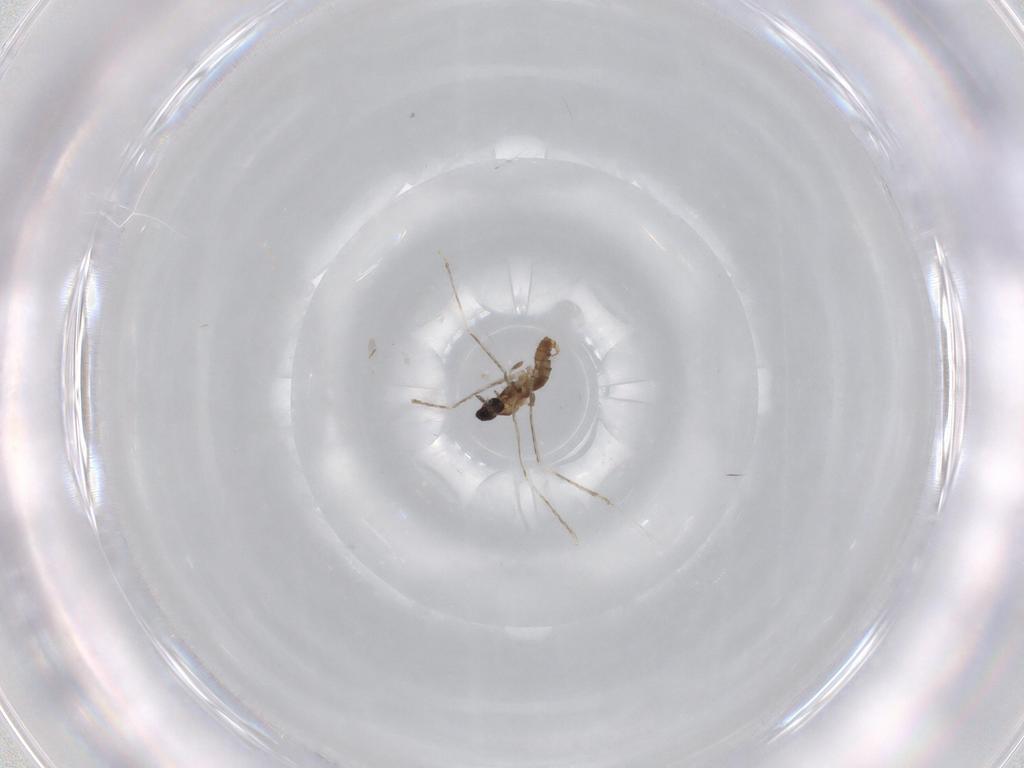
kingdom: Animalia
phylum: Arthropoda
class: Insecta
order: Diptera
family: Cecidomyiidae
